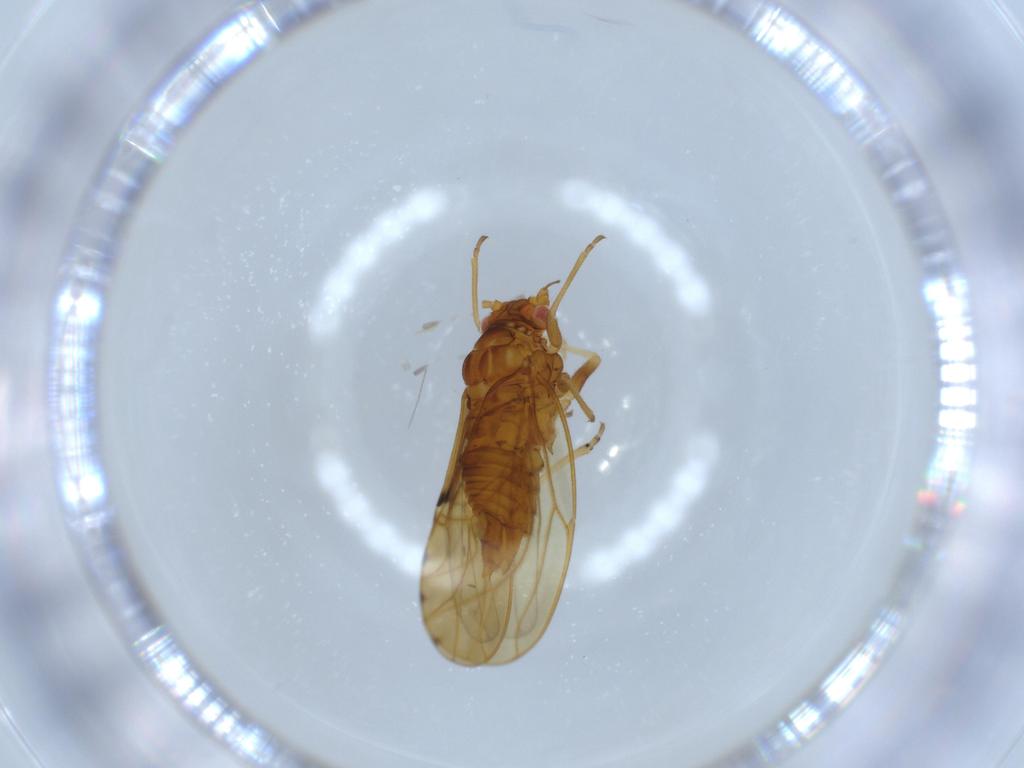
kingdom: Animalia
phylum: Arthropoda
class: Insecta
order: Hemiptera
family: Psylloidea_incertae_sedis
